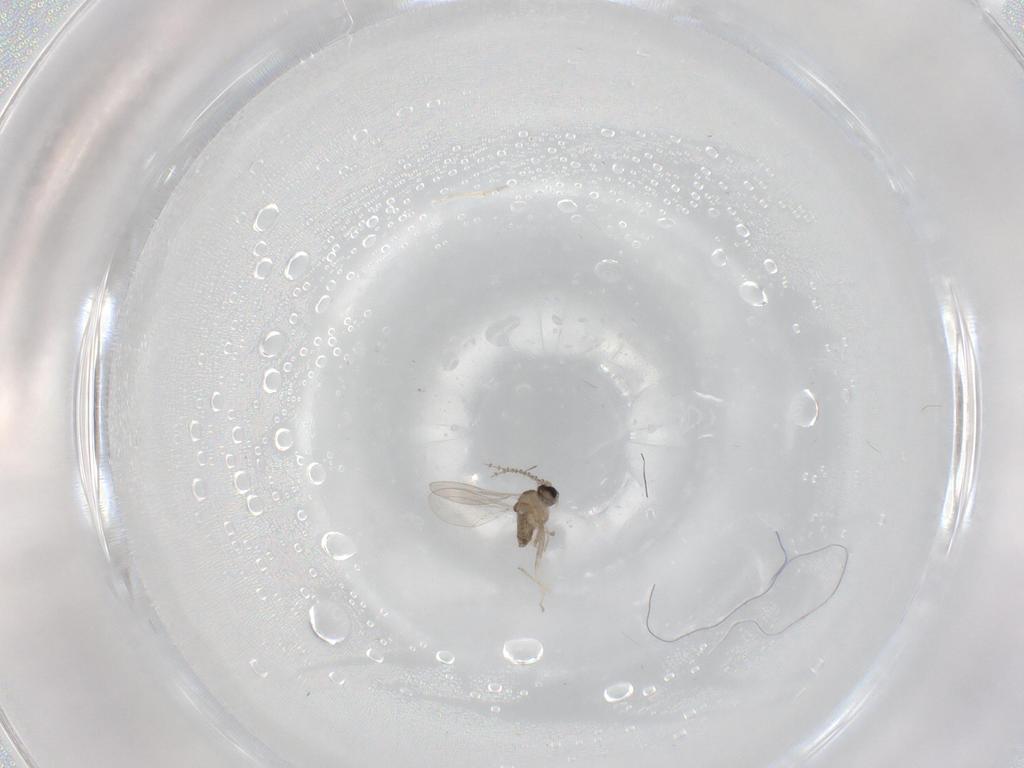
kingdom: Animalia
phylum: Arthropoda
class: Insecta
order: Diptera
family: Cecidomyiidae
